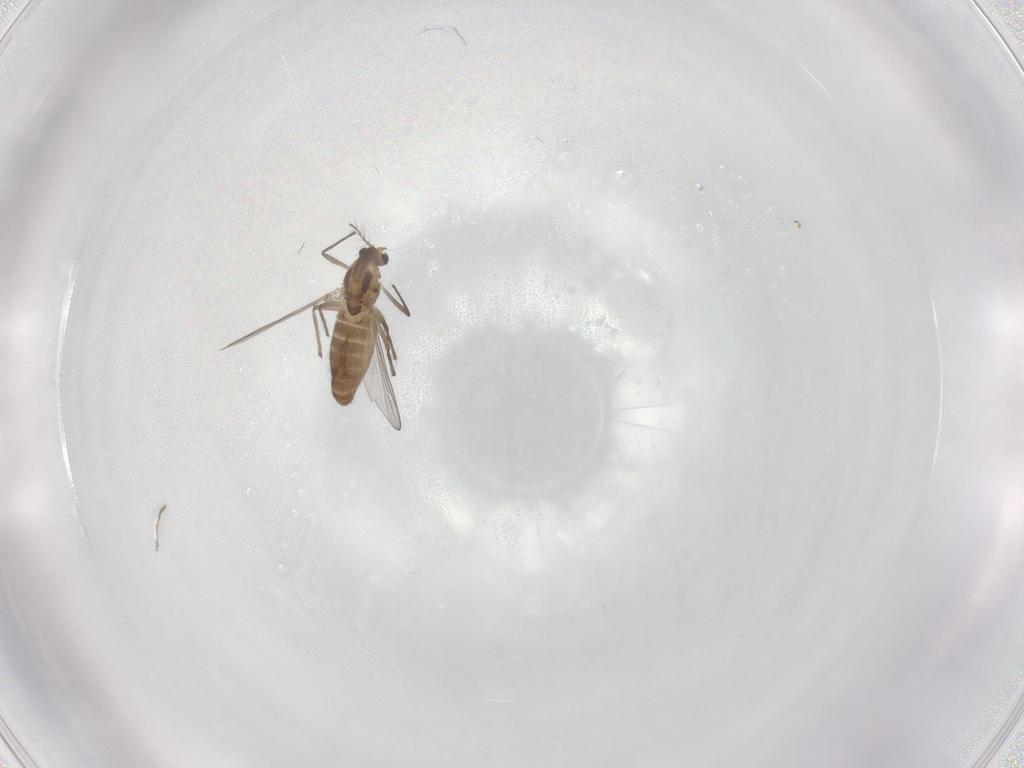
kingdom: Animalia
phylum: Arthropoda
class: Insecta
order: Diptera
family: Chironomidae
